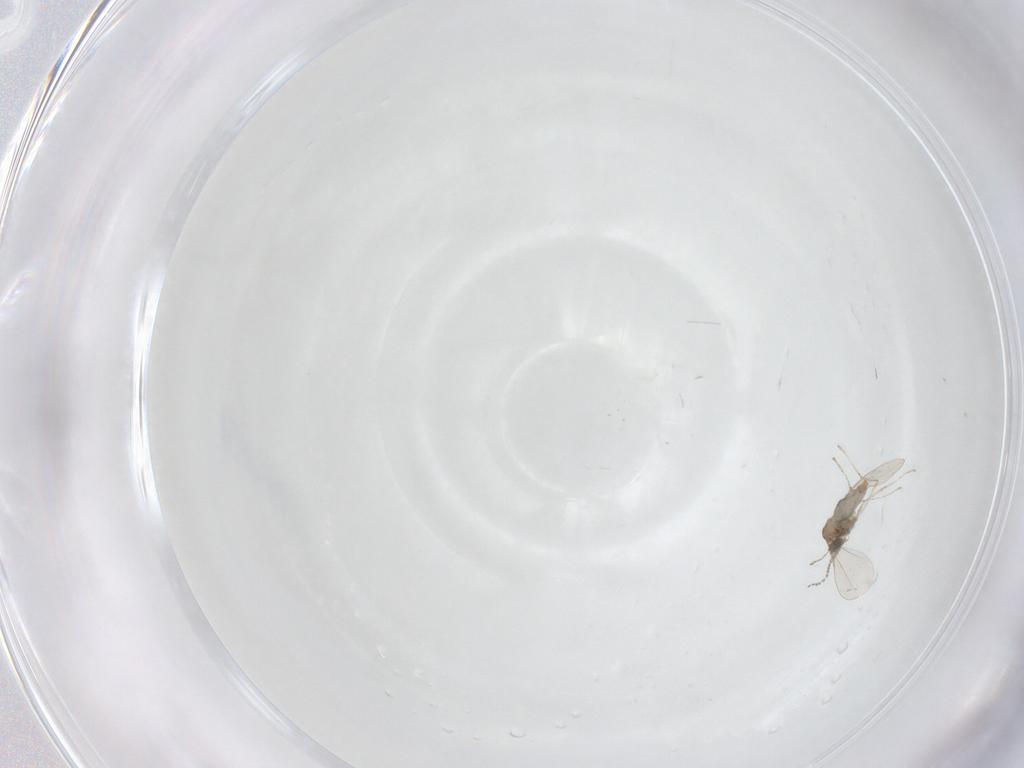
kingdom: Animalia
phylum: Arthropoda
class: Insecta
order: Diptera
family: Cecidomyiidae
